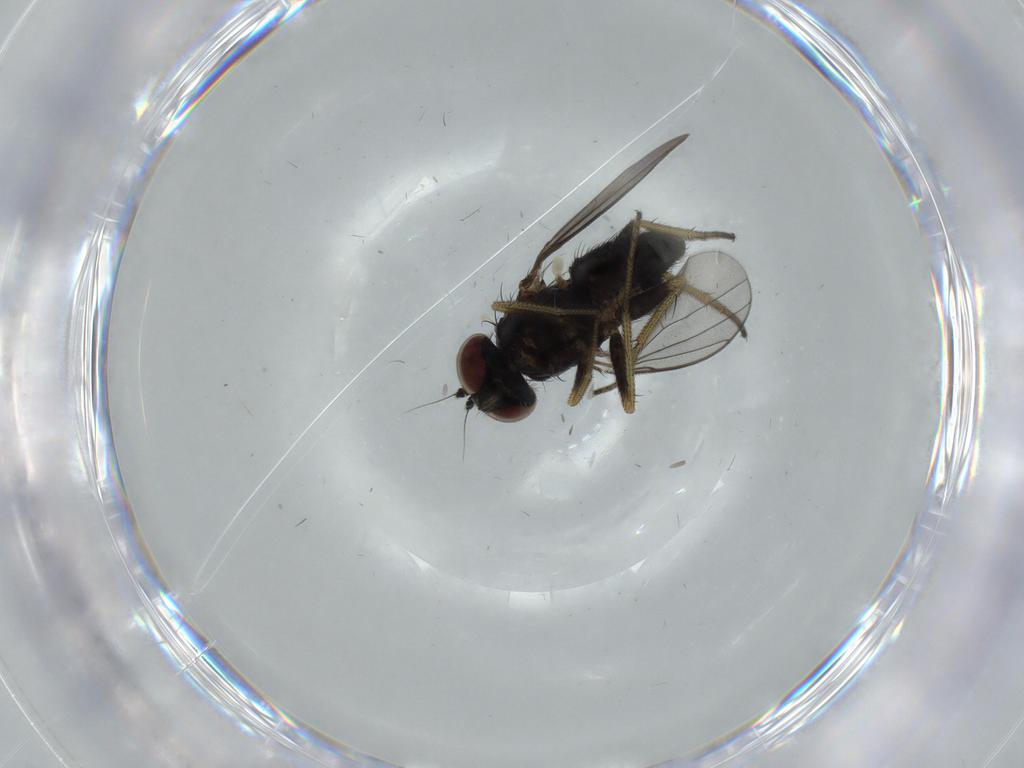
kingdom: Animalia
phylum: Arthropoda
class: Insecta
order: Diptera
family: Dolichopodidae
